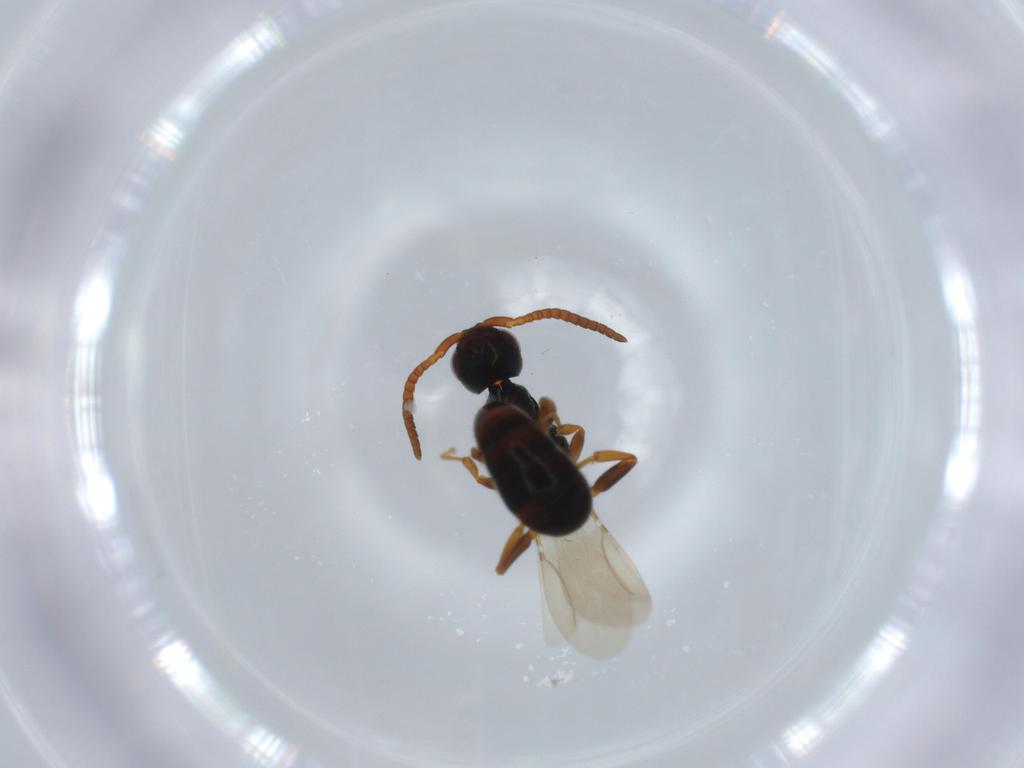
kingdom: Animalia
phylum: Arthropoda
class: Insecta
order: Hymenoptera
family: Bethylidae
